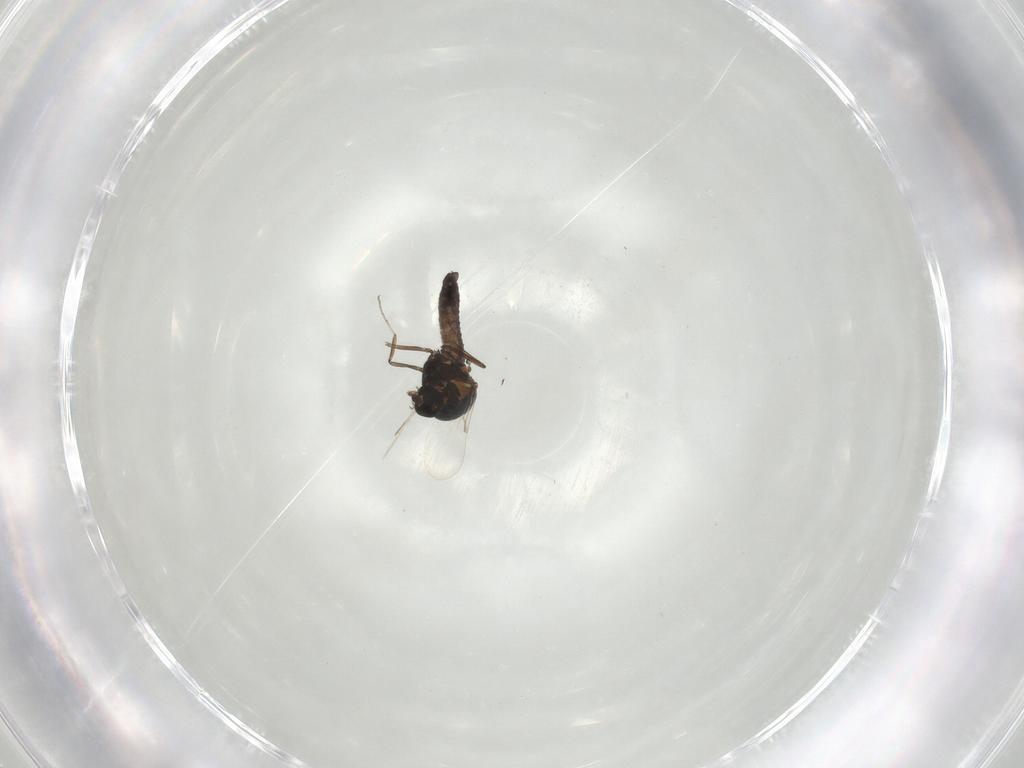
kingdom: Animalia
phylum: Arthropoda
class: Insecta
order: Diptera
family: Ceratopogonidae
